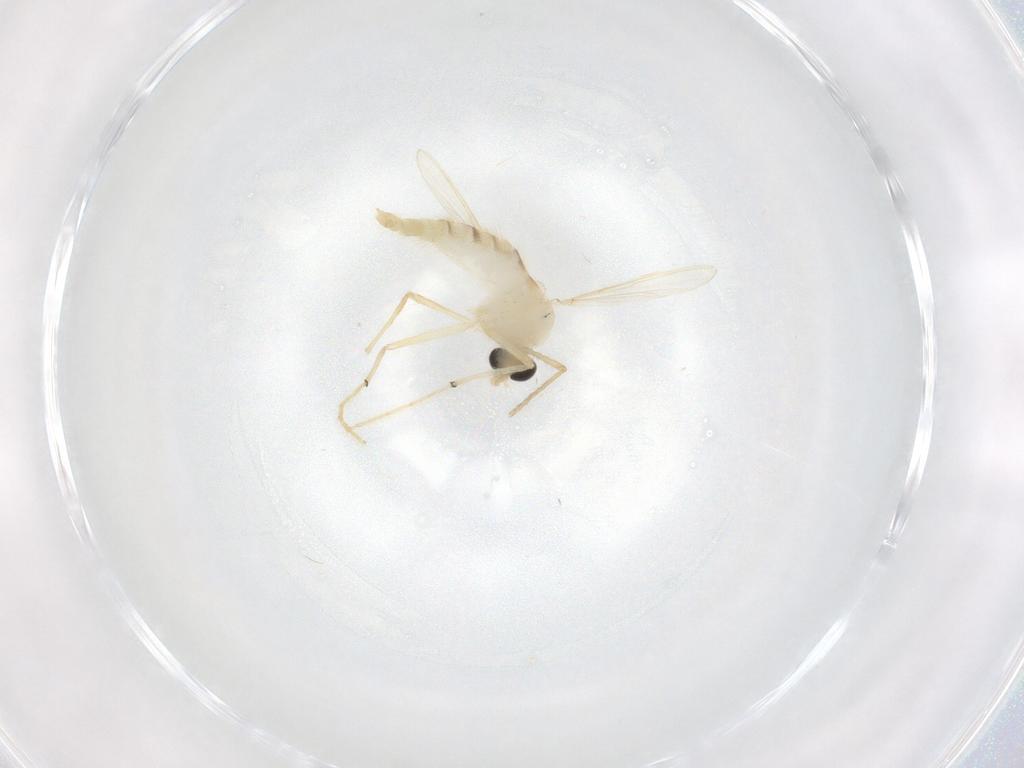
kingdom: Animalia
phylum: Arthropoda
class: Insecta
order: Diptera
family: Chironomidae
